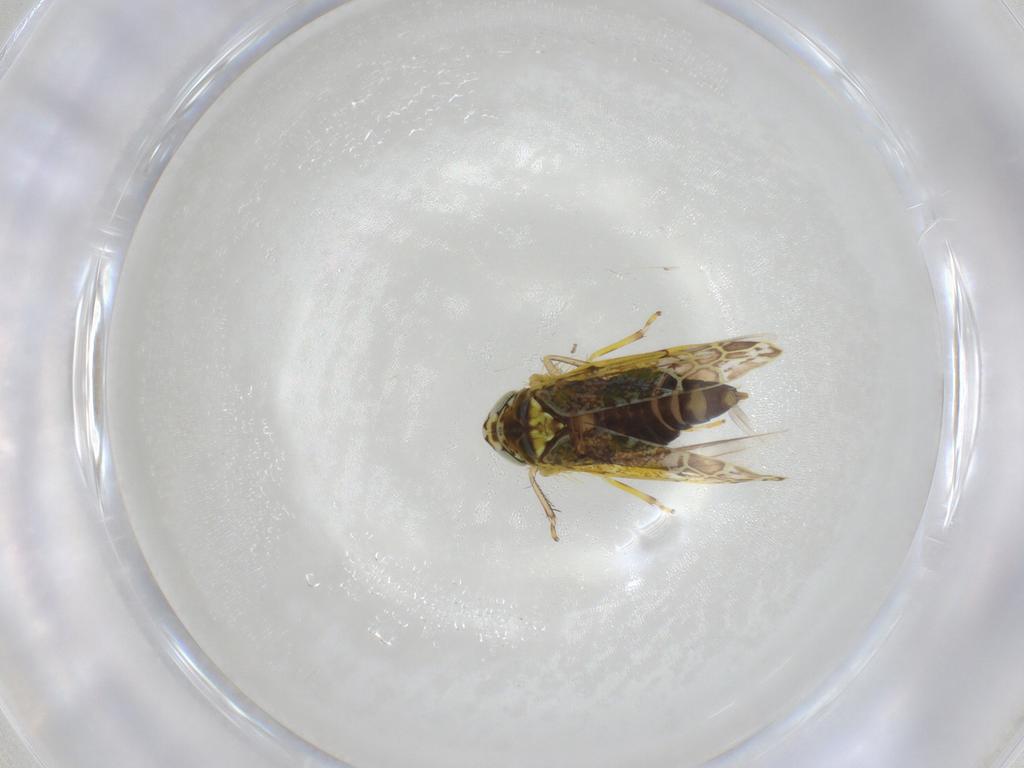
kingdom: Animalia
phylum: Arthropoda
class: Insecta
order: Hemiptera
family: Cicadellidae
